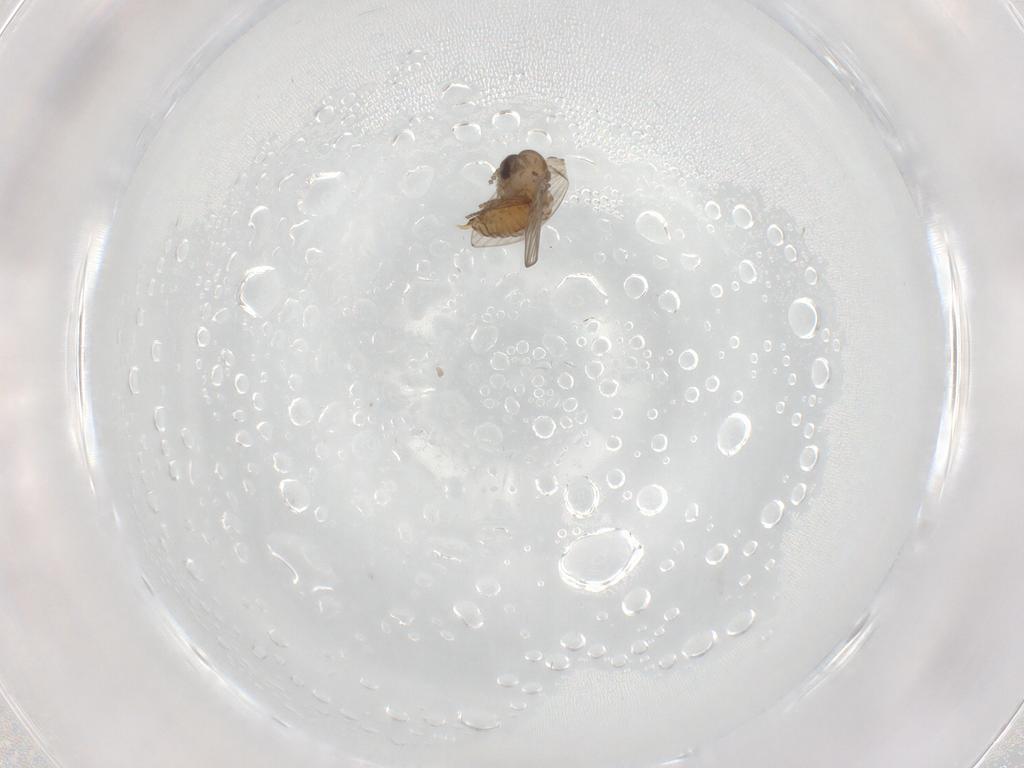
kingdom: Animalia
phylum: Arthropoda
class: Insecta
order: Diptera
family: Psychodidae
